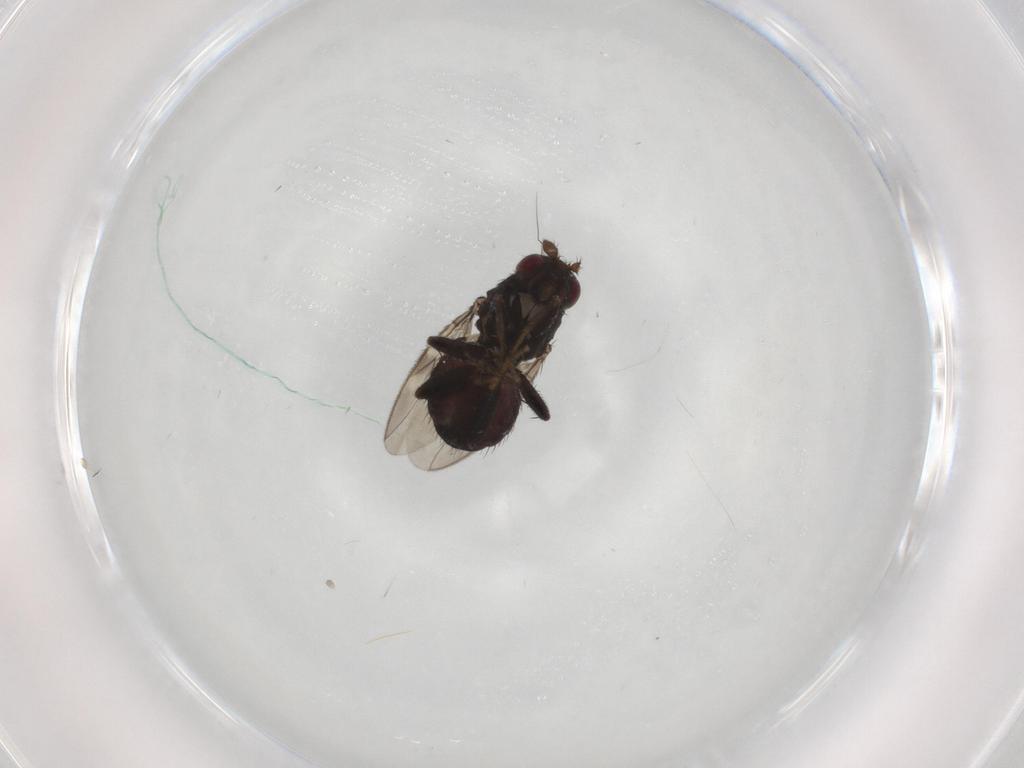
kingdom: Animalia
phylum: Arthropoda
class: Insecta
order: Diptera
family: Sphaeroceridae
